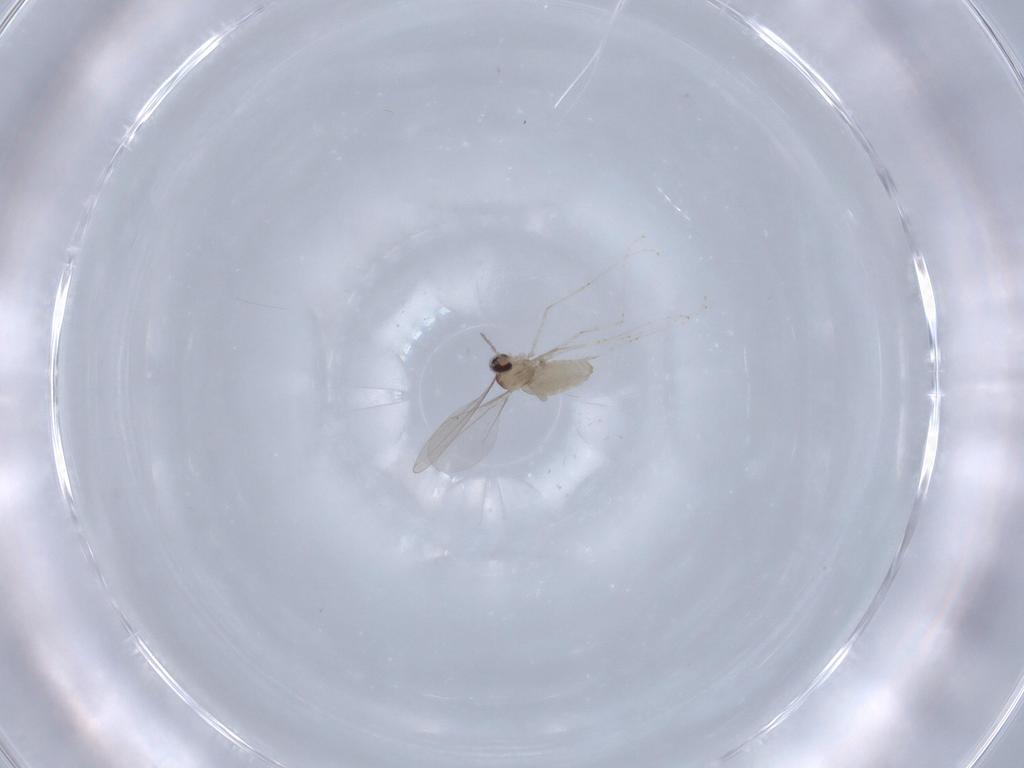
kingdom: Animalia
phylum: Arthropoda
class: Insecta
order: Diptera
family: Cecidomyiidae
